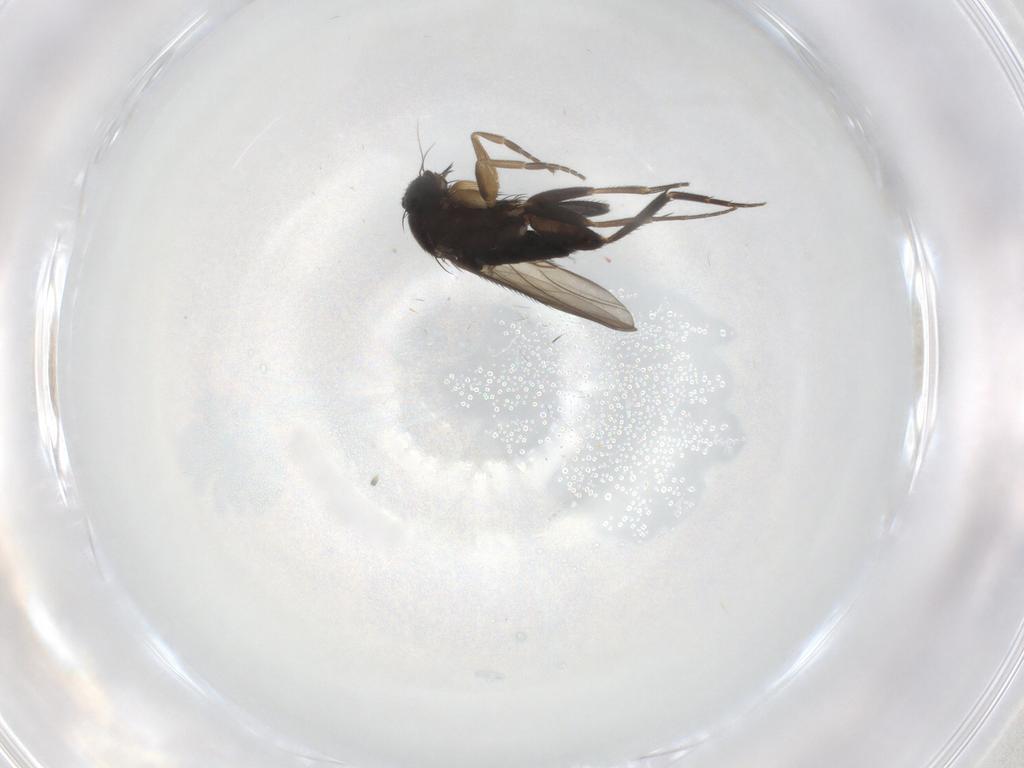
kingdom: Animalia
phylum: Arthropoda
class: Insecta
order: Diptera
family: Phoridae
